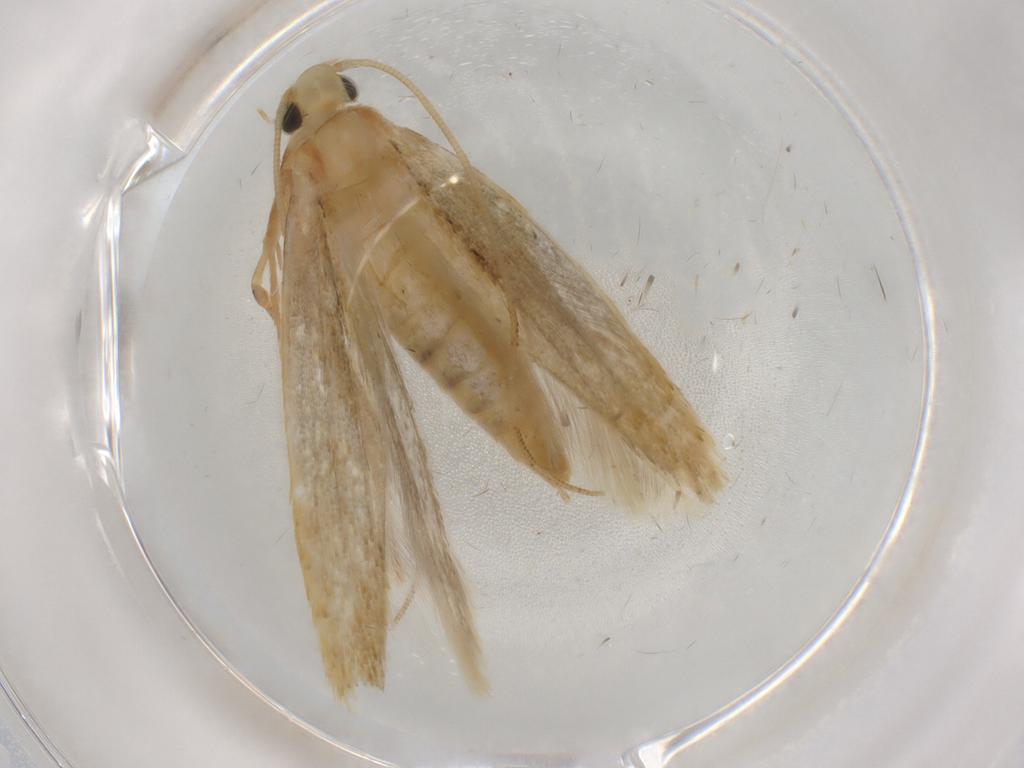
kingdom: Animalia
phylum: Arthropoda
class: Insecta
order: Lepidoptera
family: Tineidae
